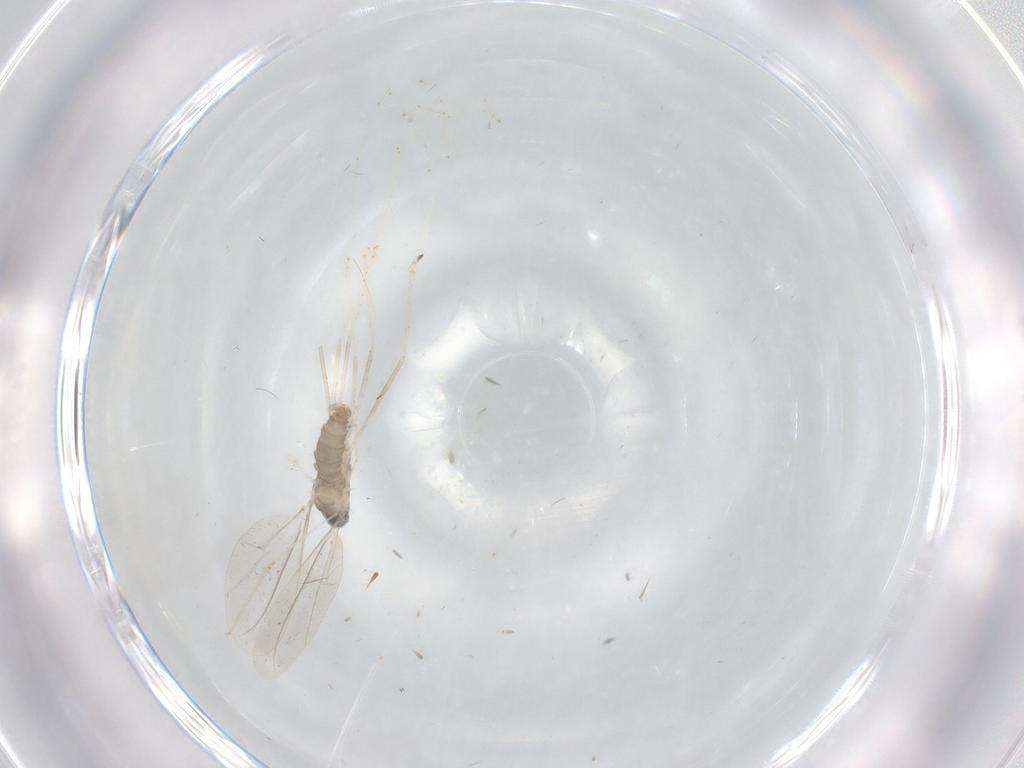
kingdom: Animalia
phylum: Arthropoda
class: Insecta
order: Diptera
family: Cecidomyiidae
